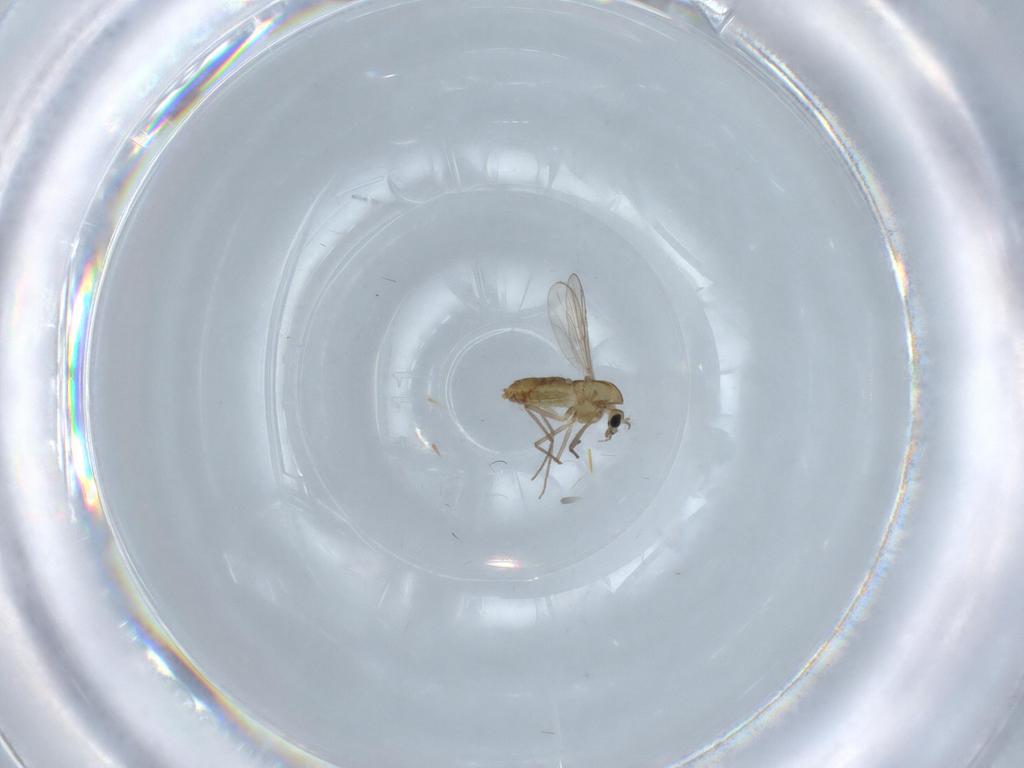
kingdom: Animalia
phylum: Arthropoda
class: Insecta
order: Diptera
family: Chironomidae
